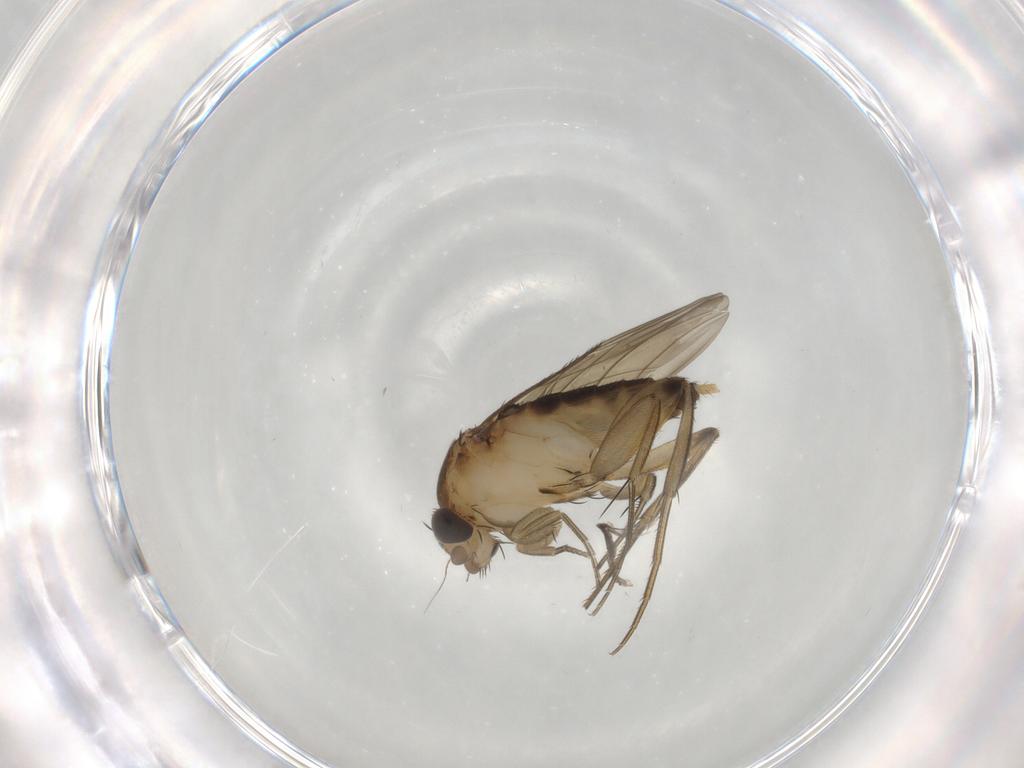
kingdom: Animalia
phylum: Arthropoda
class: Insecta
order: Diptera
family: Phoridae
